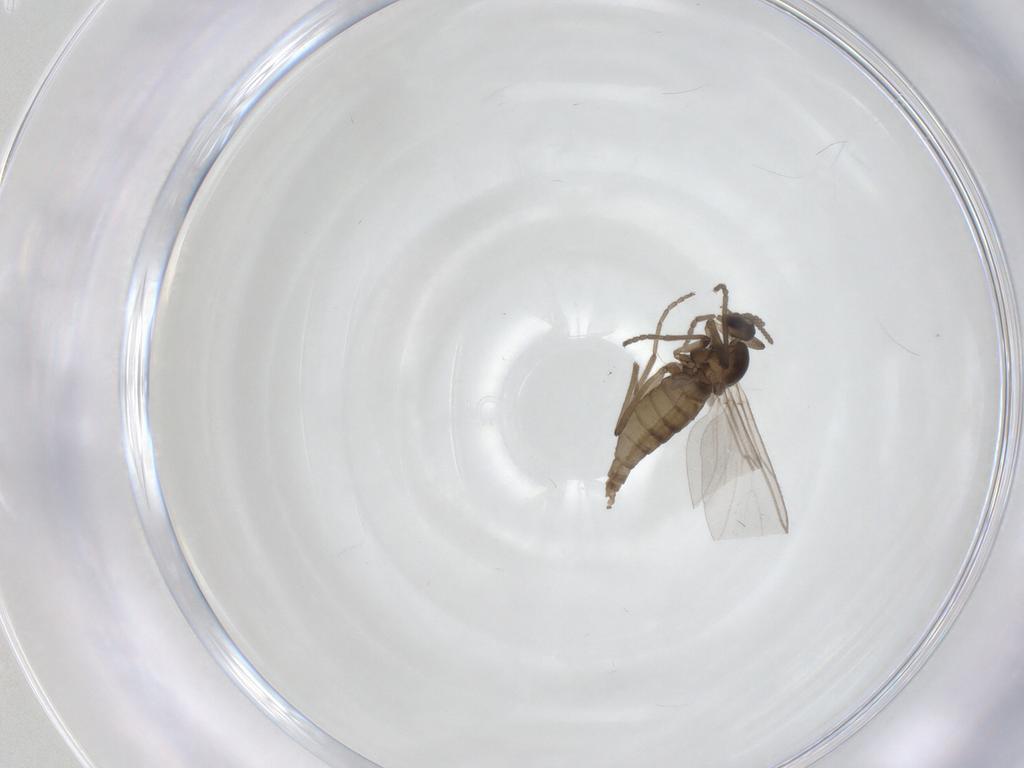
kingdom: Animalia
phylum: Arthropoda
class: Insecta
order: Diptera
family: Cecidomyiidae
